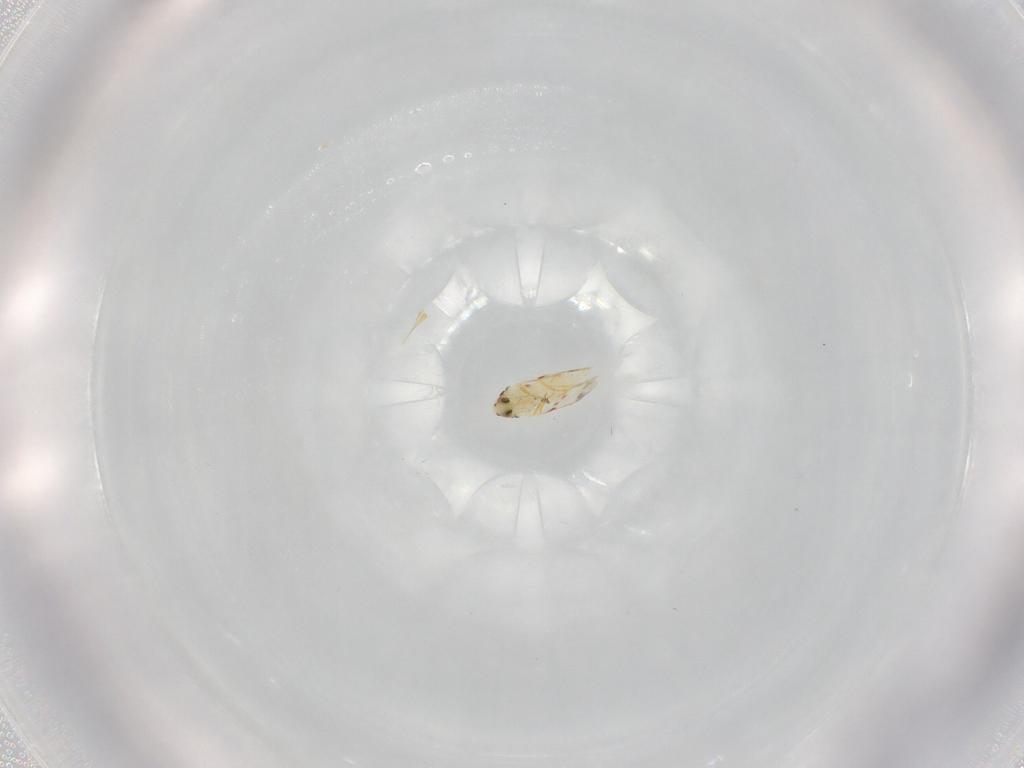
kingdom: Animalia
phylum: Arthropoda
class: Insecta
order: Hemiptera
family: Aleyrodidae
